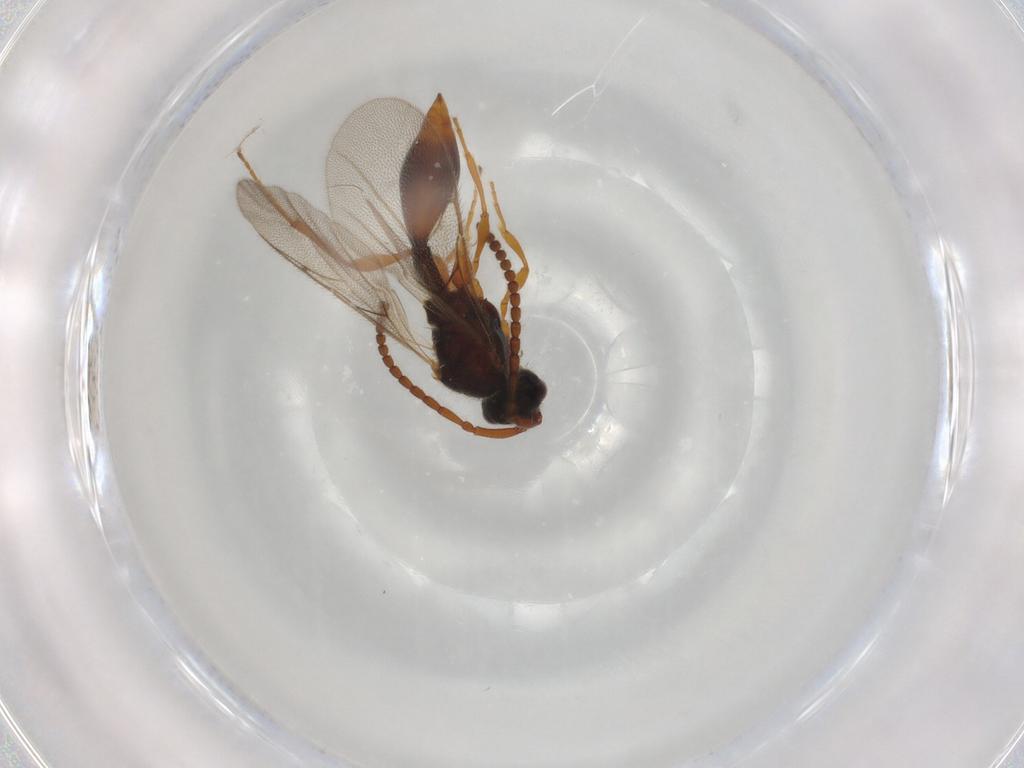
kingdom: Animalia
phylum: Arthropoda
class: Insecta
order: Hymenoptera
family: Diapriidae
